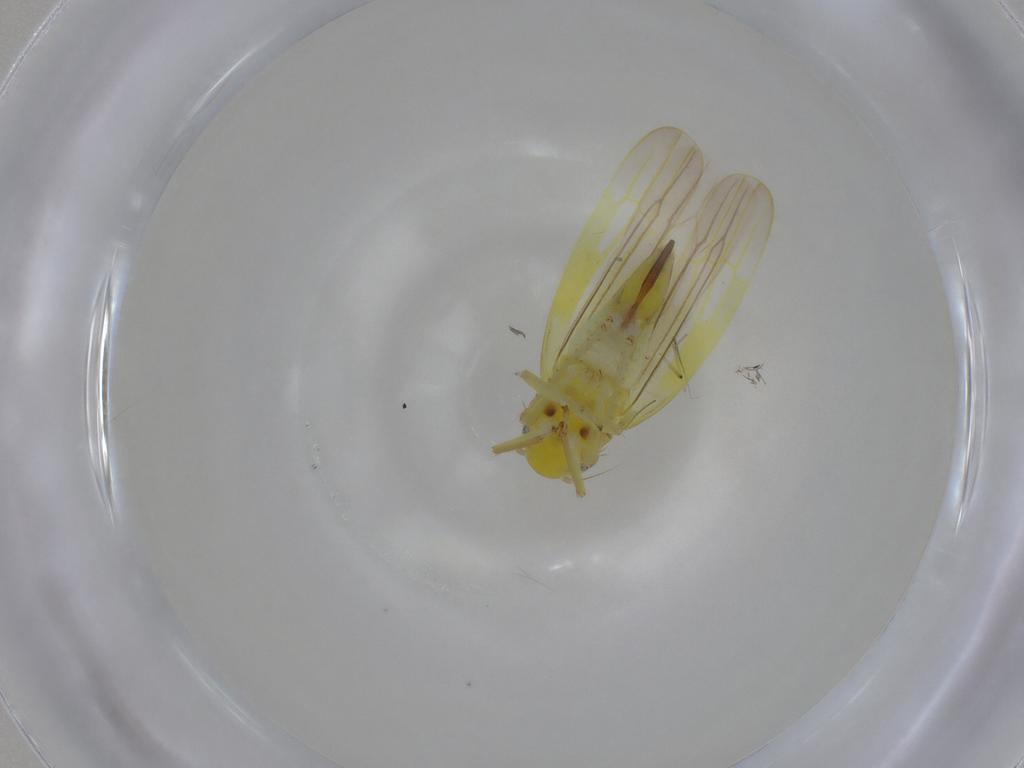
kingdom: Animalia
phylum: Arthropoda
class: Insecta
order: Hemiptera
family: Cicadellidae
